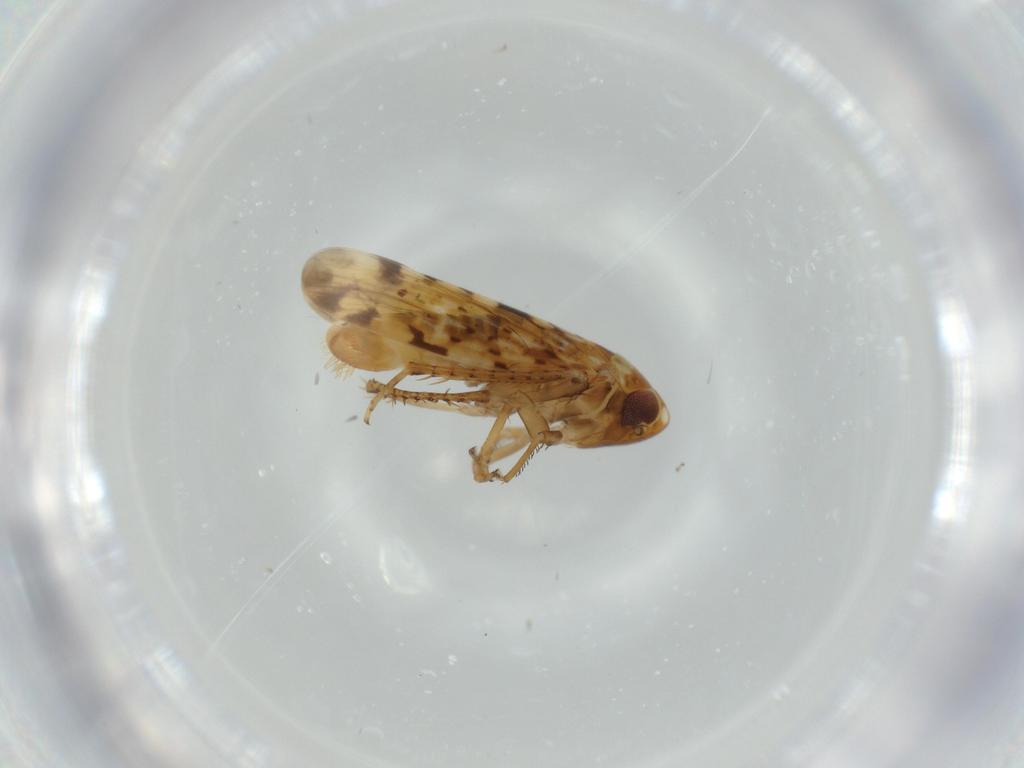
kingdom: Animalia
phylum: Arthropoda
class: Insecta
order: Hemiptera
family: Cicadellidae
